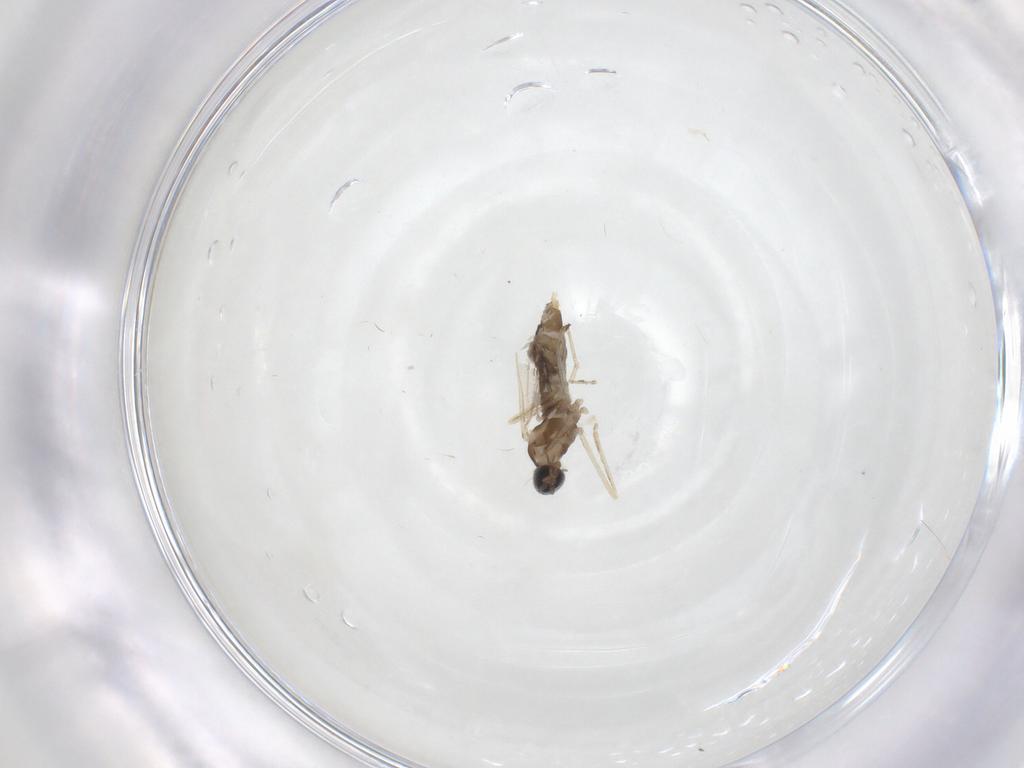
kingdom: Animalia
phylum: Arthropoda
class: Insecta
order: Diptera
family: Cecidomyiidae
